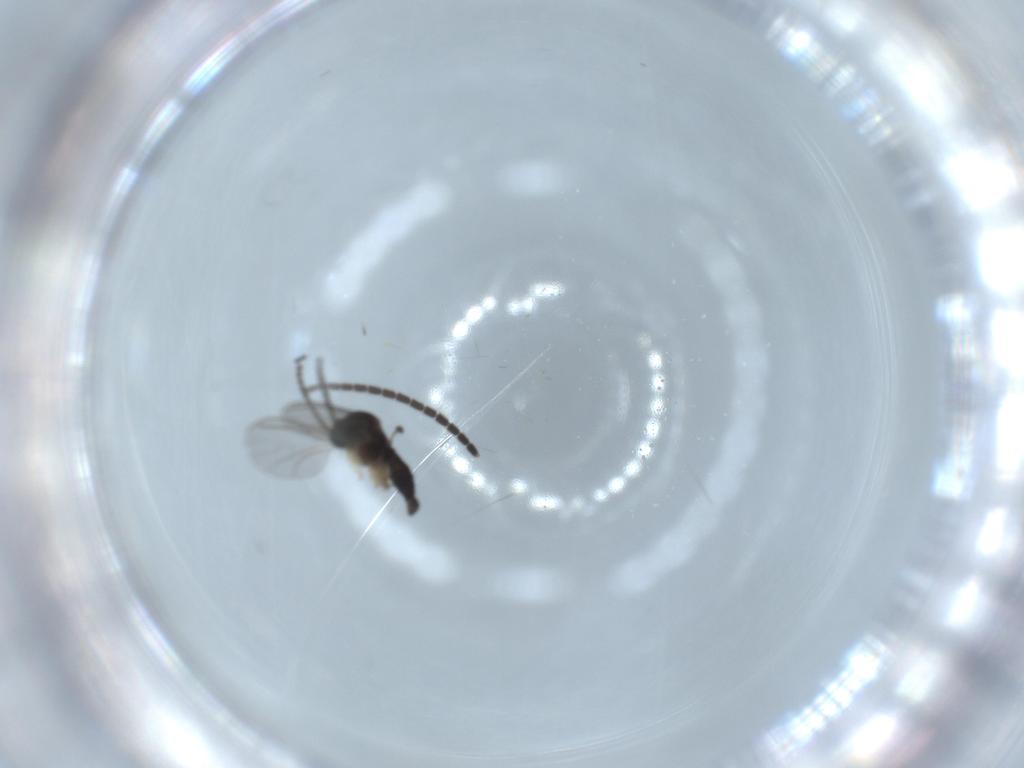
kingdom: Animalia
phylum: Arthropoda
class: Insecta
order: Diptera
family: Sciaridae
